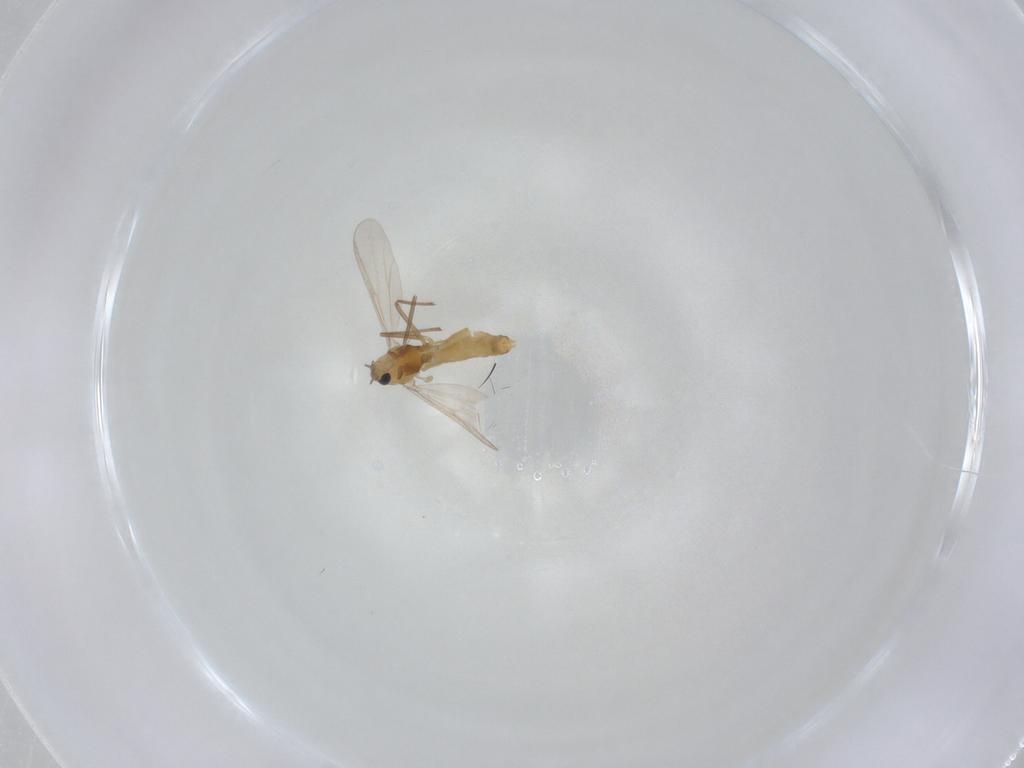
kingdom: Animalia
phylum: Arthropoda
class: Insecta
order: Diptera
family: Chironomidae
